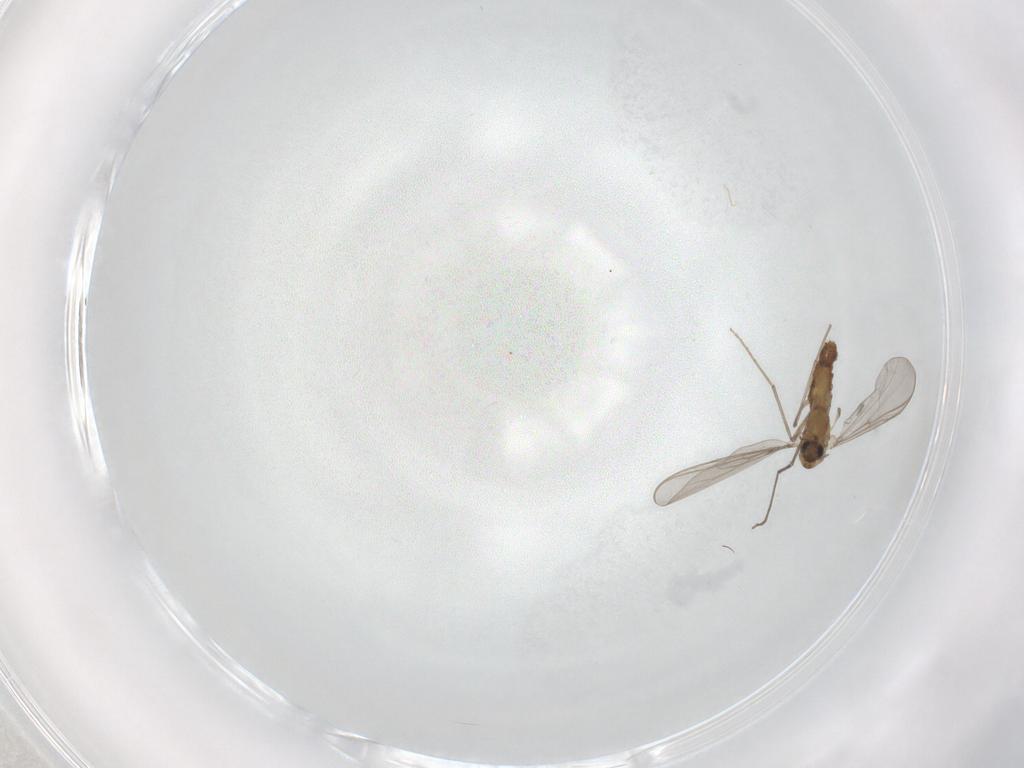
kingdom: Animalia
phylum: Arthropoda
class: Insecta
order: Diptera
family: Chironomidae
